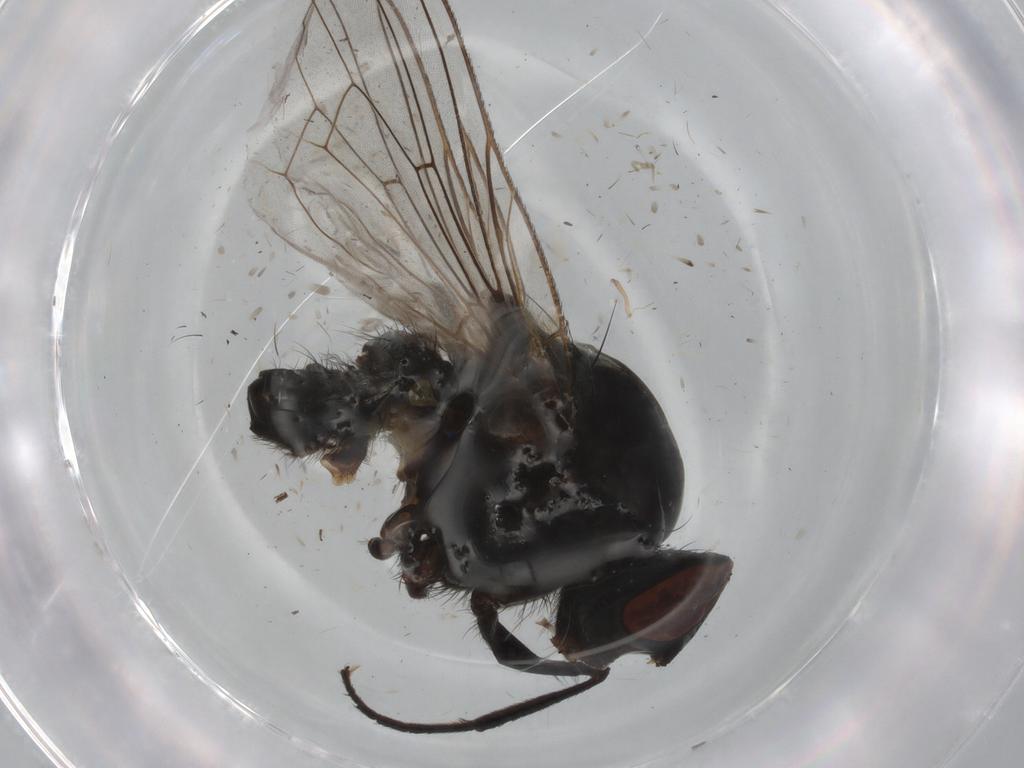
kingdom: Animalia
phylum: Arthropoda
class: Insecta
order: Diptera
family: Anthomyiidae
